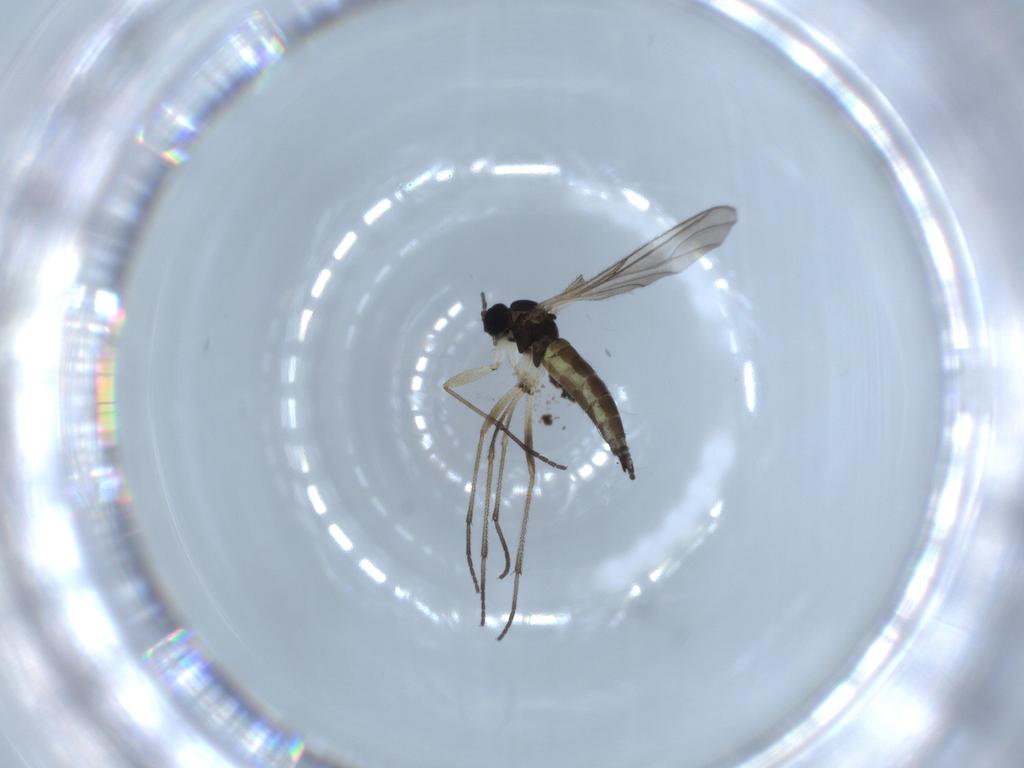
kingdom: Animalia
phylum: Arthropoda
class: Insecta
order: Diptera
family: Sciaridae
